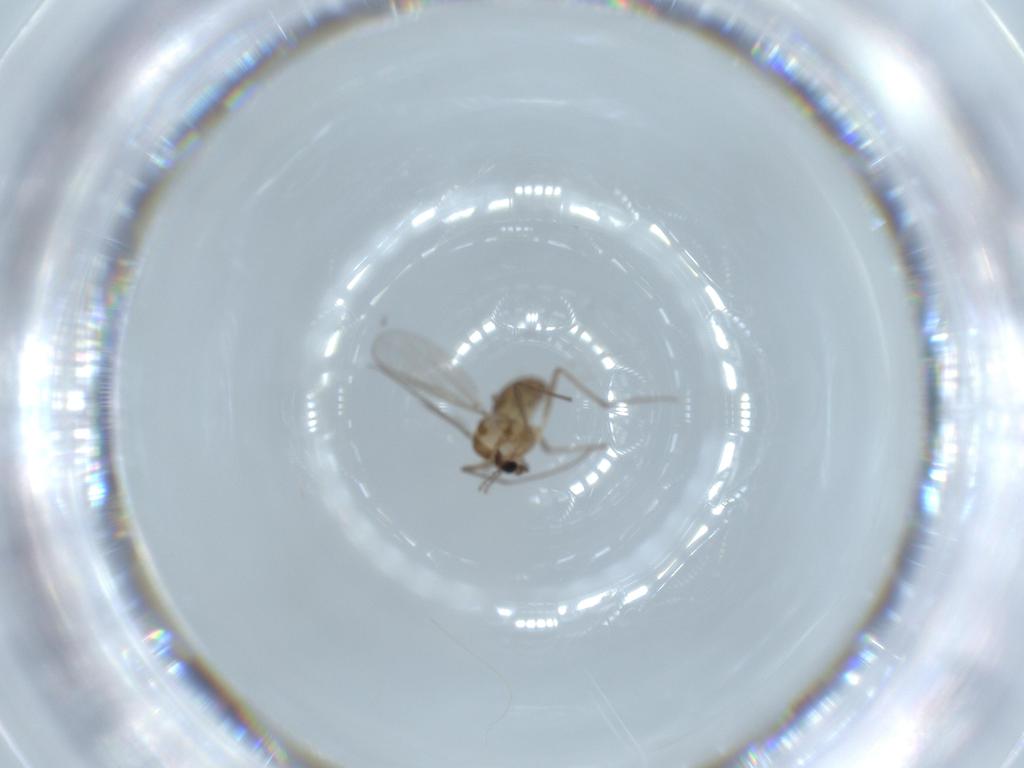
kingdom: Animalia
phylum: Arthropoda
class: Insecta
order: Diptera
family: Chironomidae
